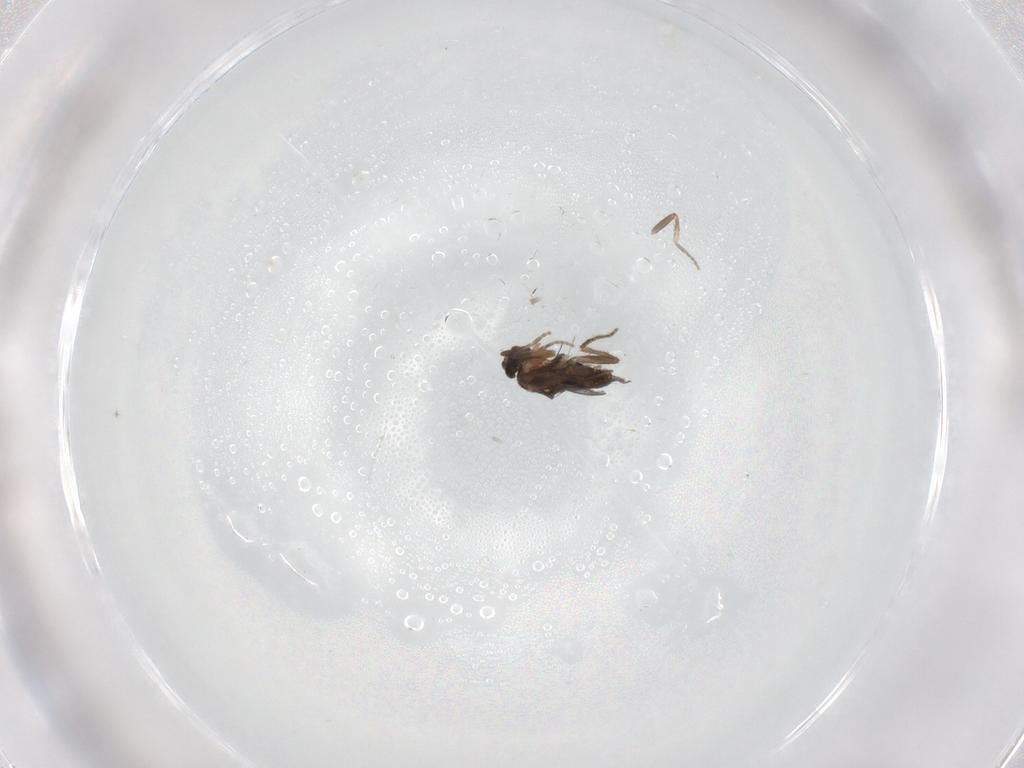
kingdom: Animalia
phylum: Arthropoda
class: Insecta
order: Diptera
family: Cecidomyiidae
